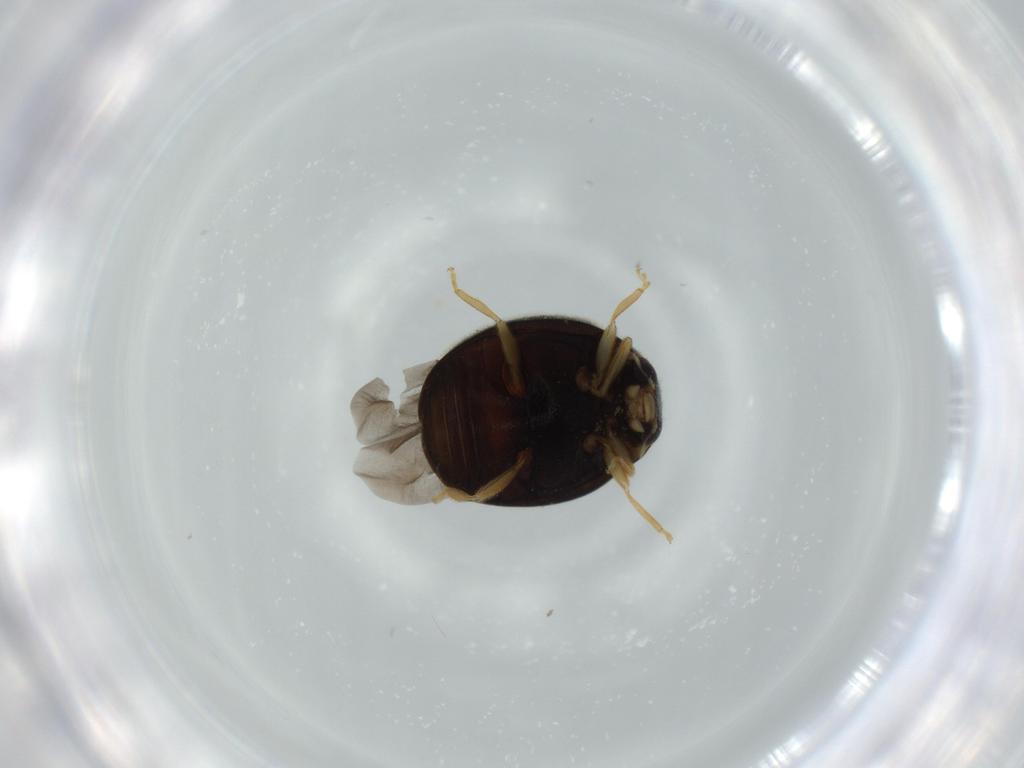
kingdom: Animalia
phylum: Arthropoda
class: Insecta
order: Coleoptera
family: Coccinellidae
